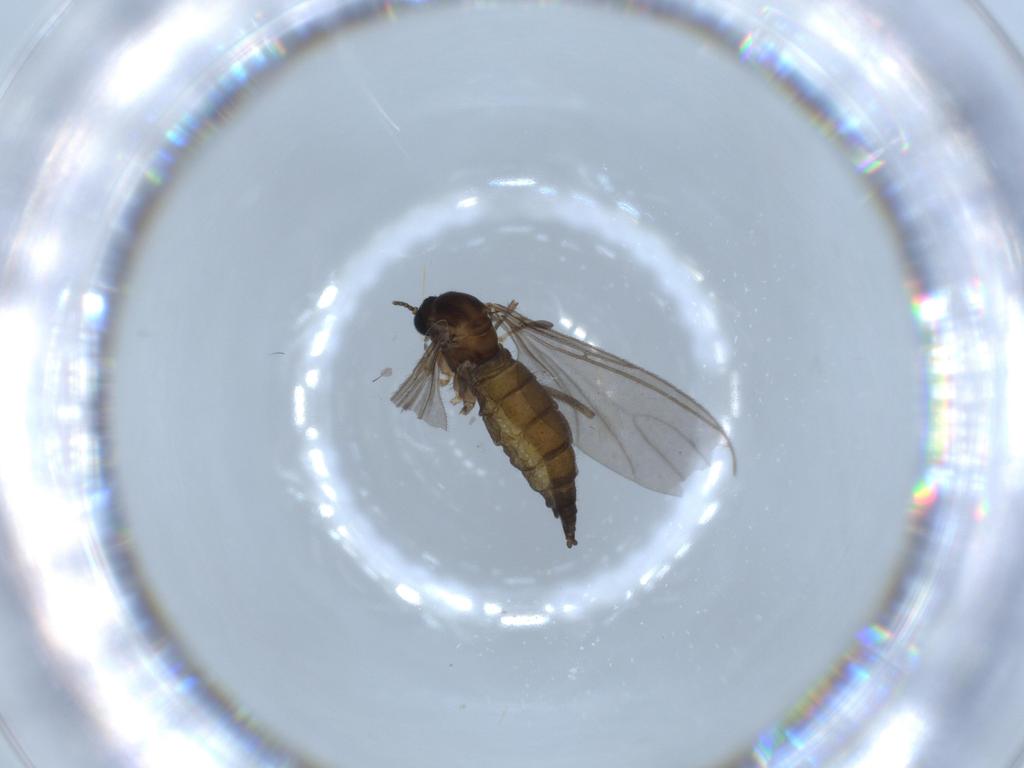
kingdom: Animalia
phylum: Arthropoda
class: Insecta
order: Diptera
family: Sciaridae
